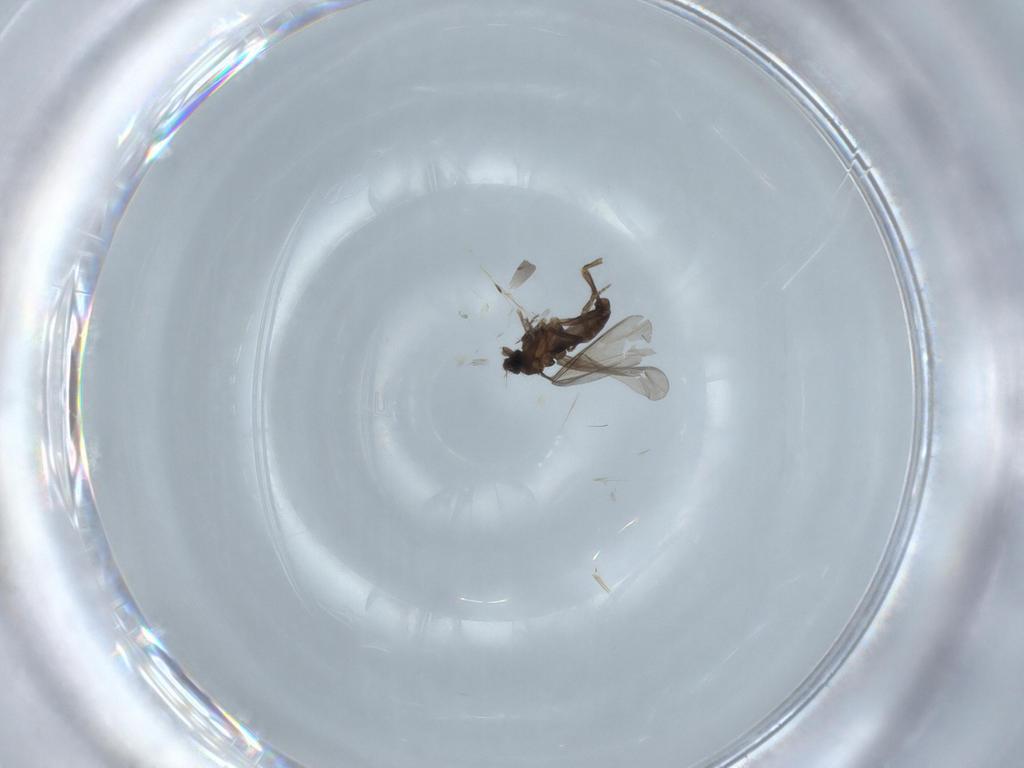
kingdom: Animalia
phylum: Arthropoda
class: Insecta
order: Diptera
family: Phoridae
